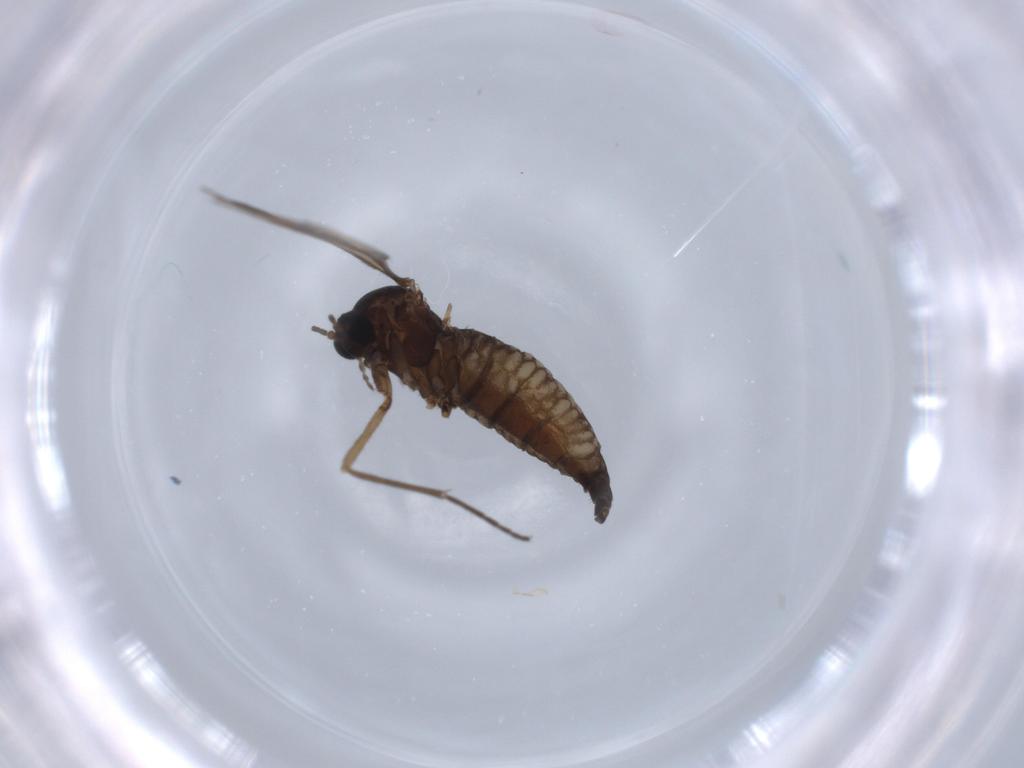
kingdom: Animalia
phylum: Arthropoda
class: Insecta
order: Diptera
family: Sciaridae
